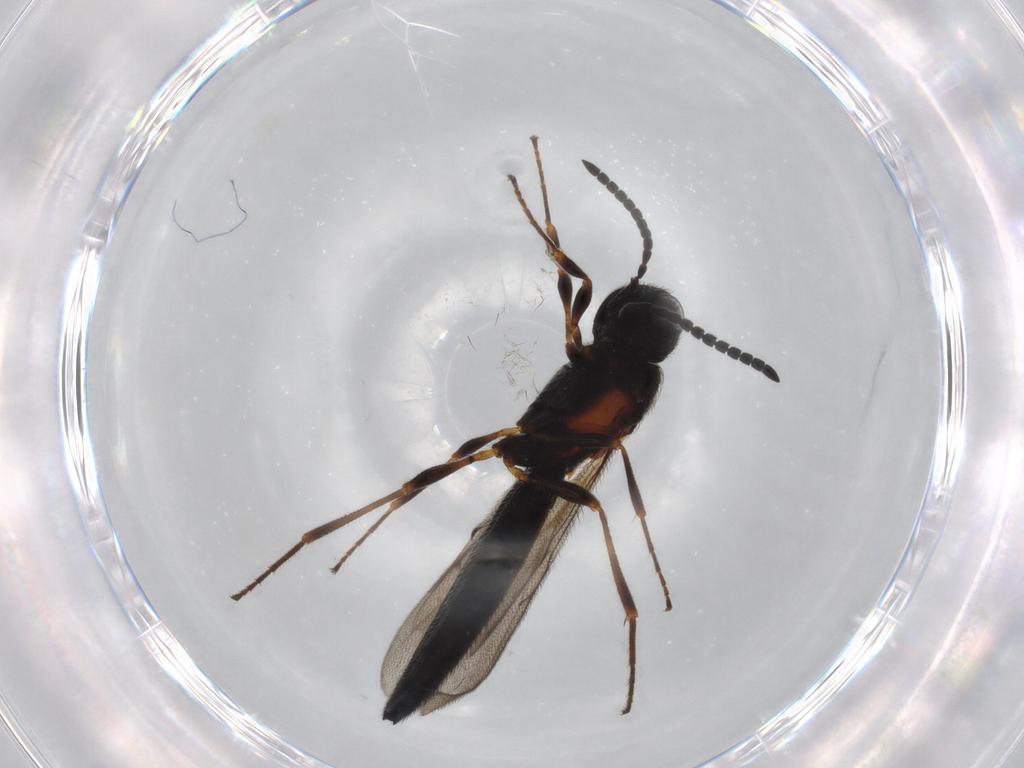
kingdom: Animalia
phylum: Arthropoda
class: Insecta
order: Hymenoptera
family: Scelionidae
